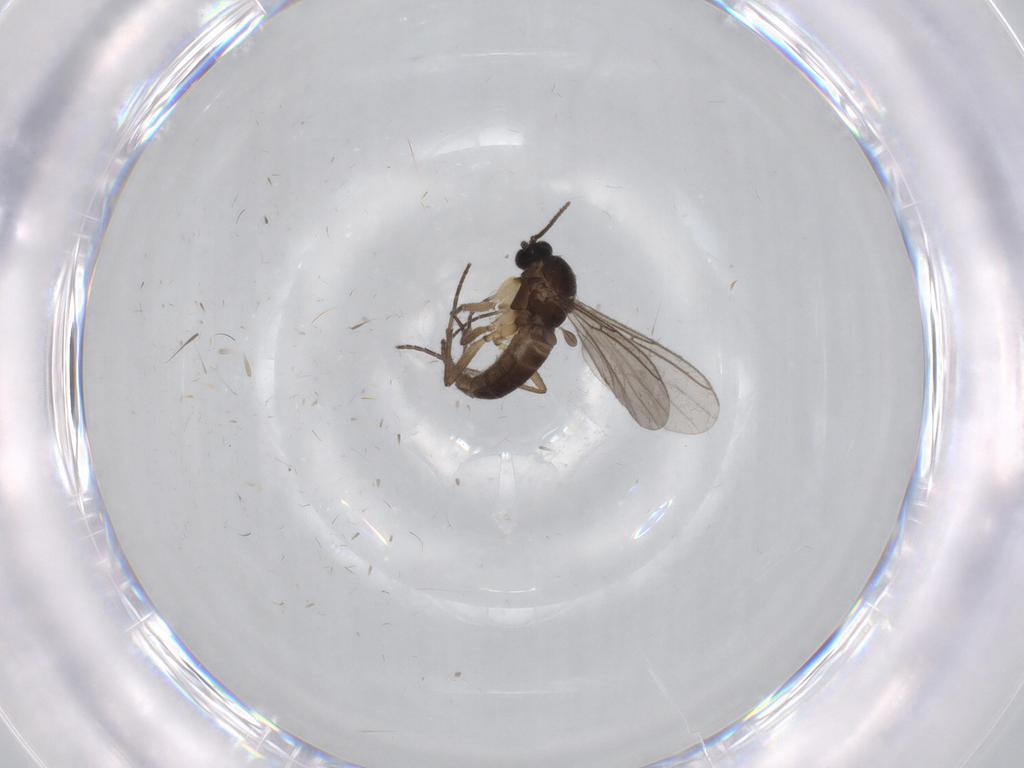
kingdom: Animalia
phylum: Arthropoda
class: Insecta
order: Diptera
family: Sciaridae
